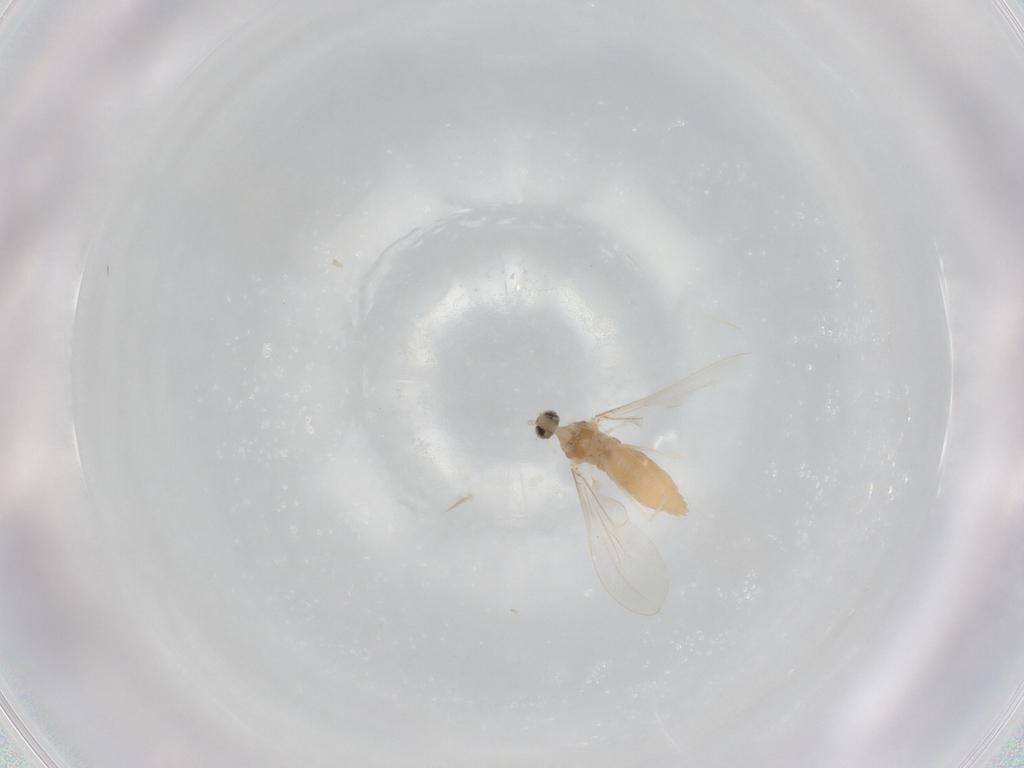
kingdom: Animalia
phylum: Arthropoda
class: Insecta
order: Diptera
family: Cecidomyiidae
